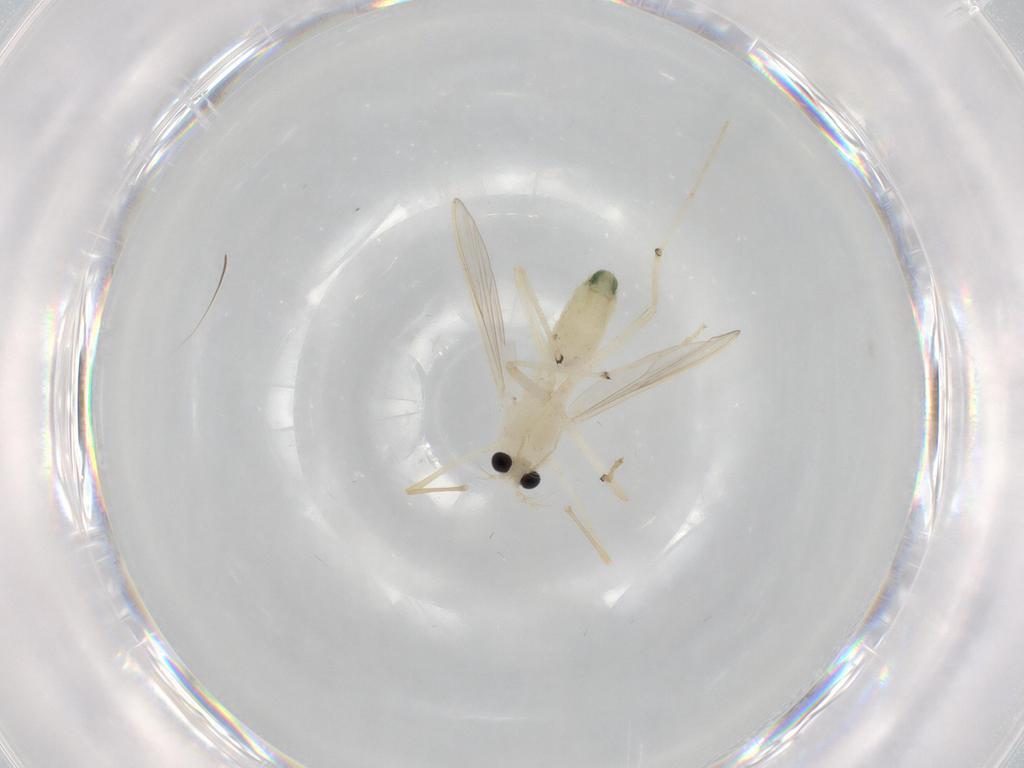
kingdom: Animalia
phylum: Arthropoda
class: Insecta
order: Diptera
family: Chironomidae
